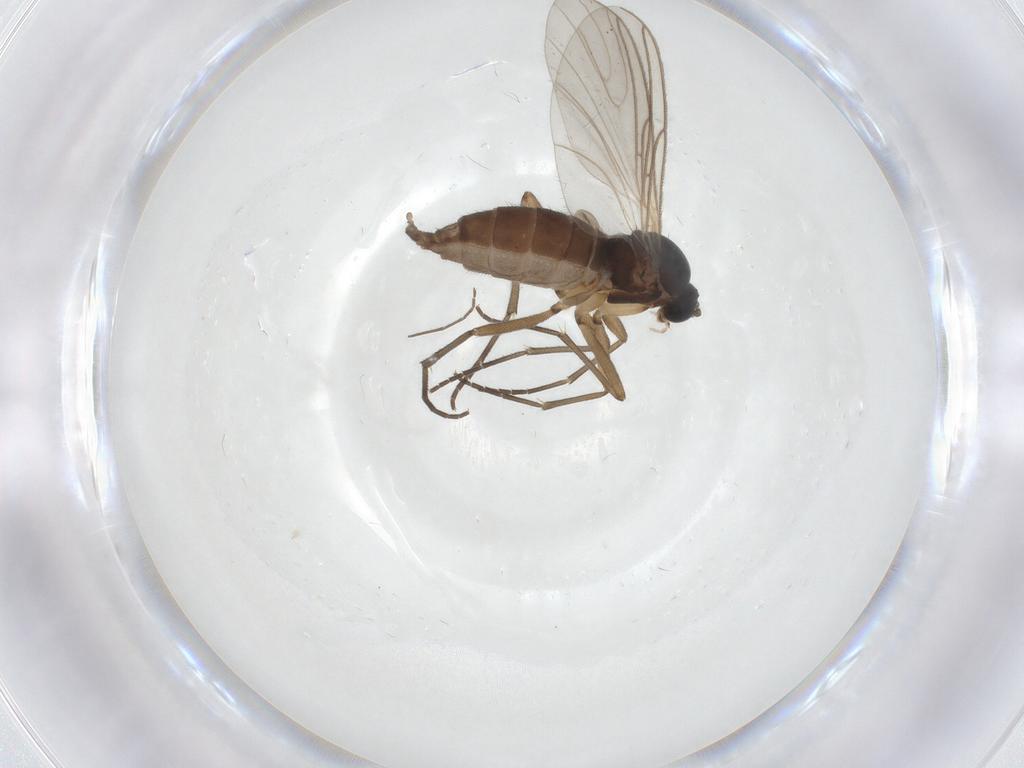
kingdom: Animalia
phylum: Arthropoda
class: Insecta
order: Diptera
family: Chironomidae
